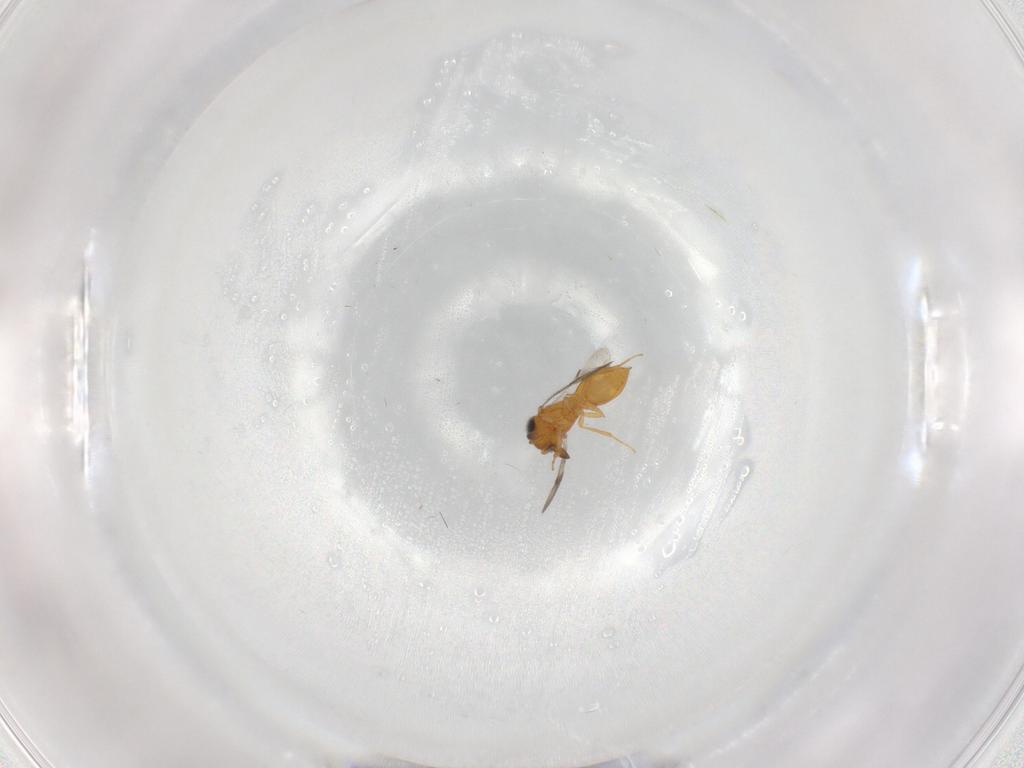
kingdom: Animalia
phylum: Arthropoda
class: Insecta
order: Hymenoptera
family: Scelionidae
